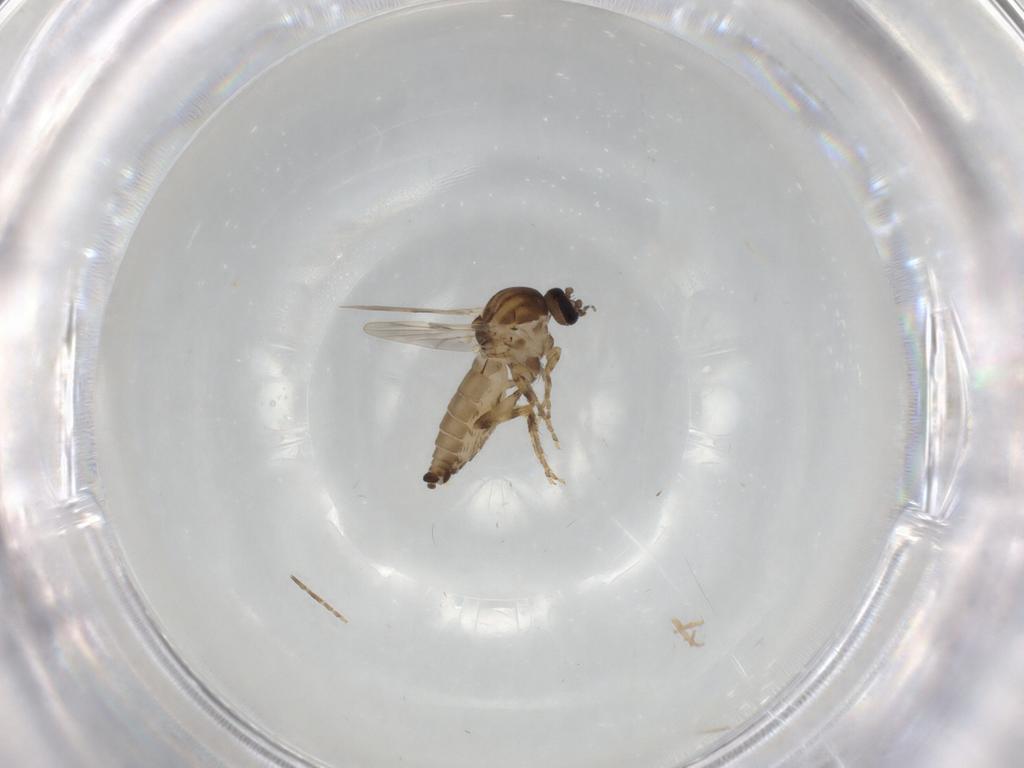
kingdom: Animalia
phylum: Arthropoda
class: Insecta
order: Diptera
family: Ceratopogonidae
